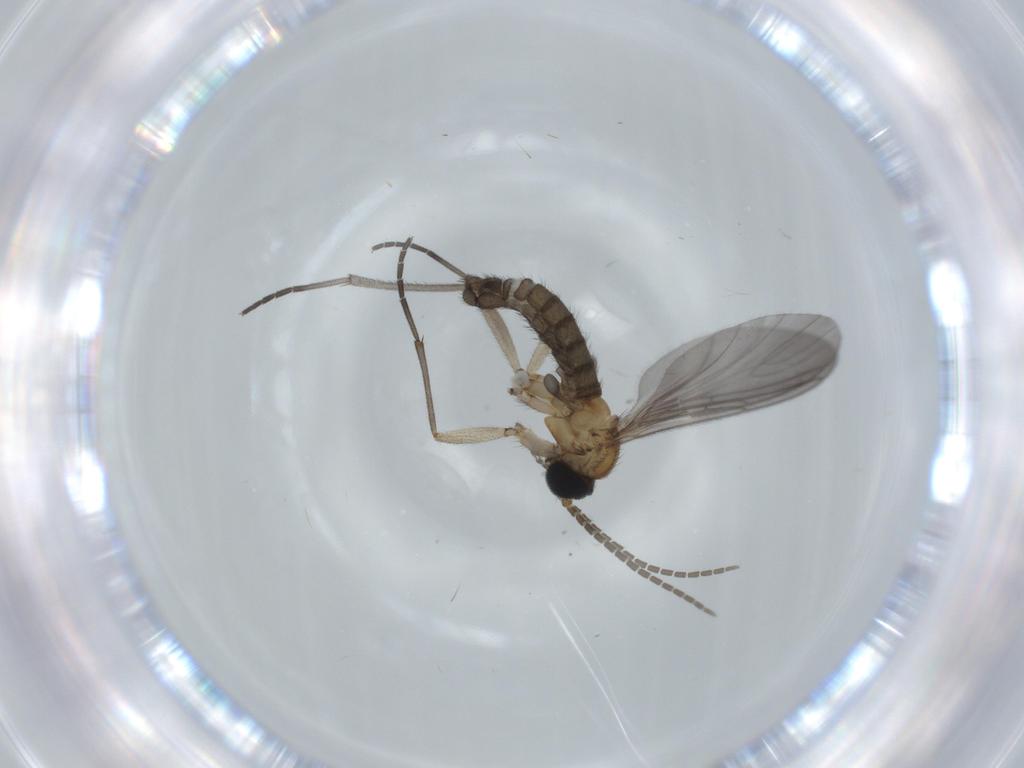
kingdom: Animalia
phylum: Arthropoda
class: Insecta
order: Diptera
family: Sciaridae
